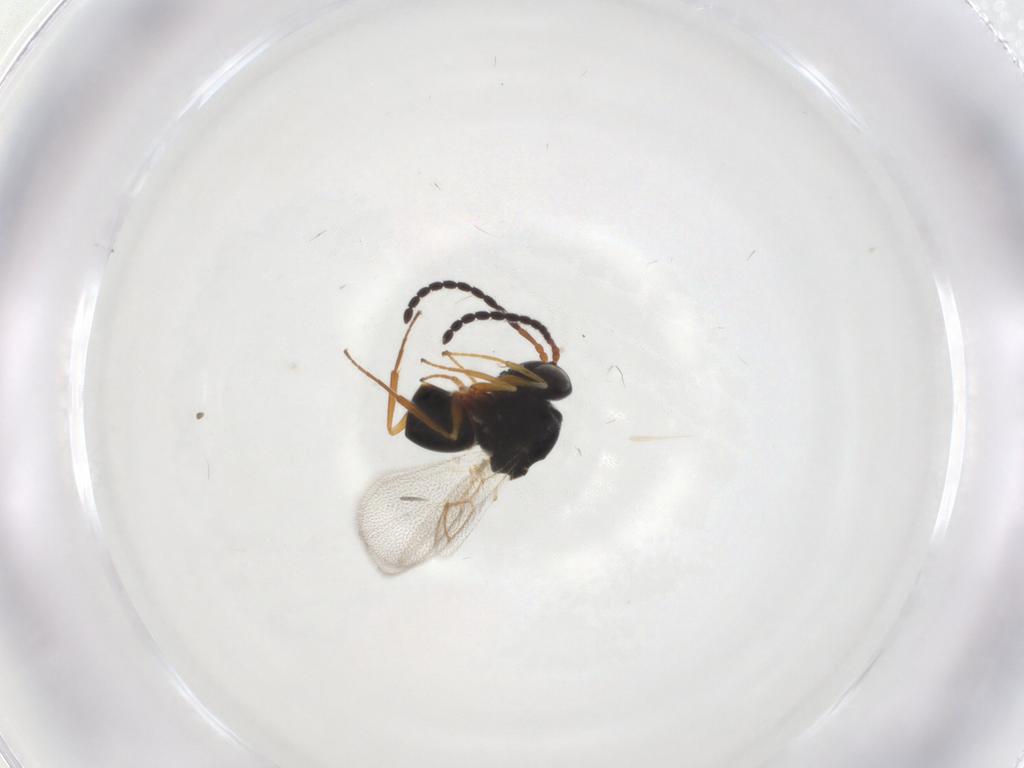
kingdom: Animalia
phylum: Arthropoda
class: Insecta
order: Hymenoptera
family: Figitidae
